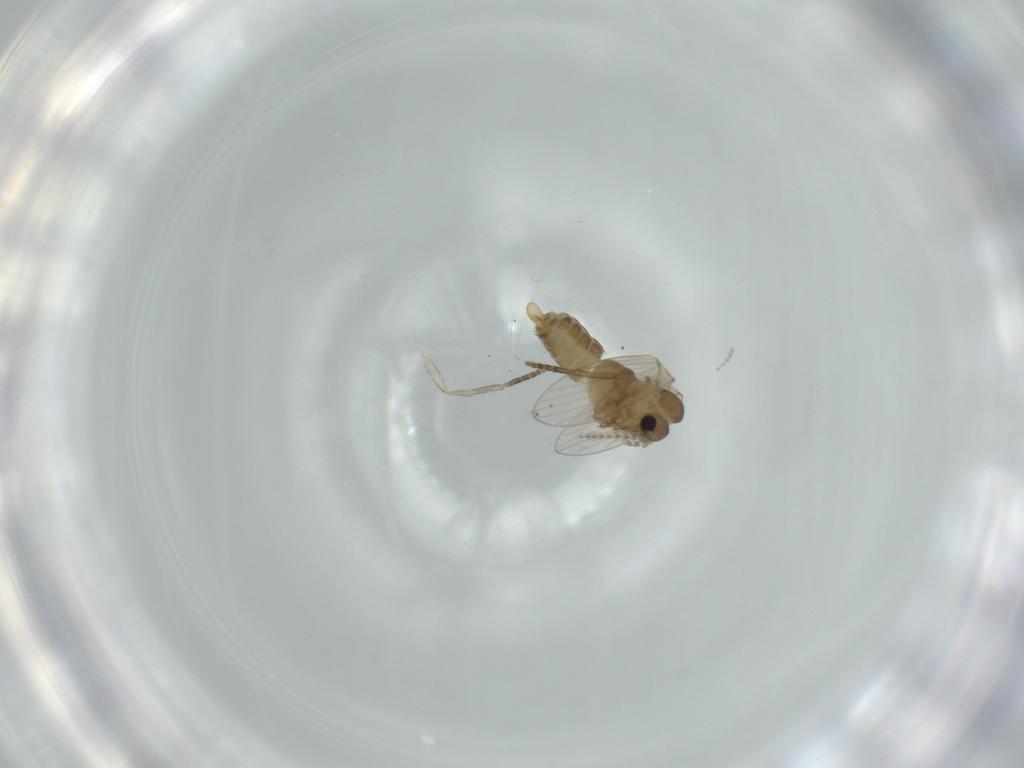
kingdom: Animalia
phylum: Arthropoda
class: Insecta
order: Diptera
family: Psychodidae
